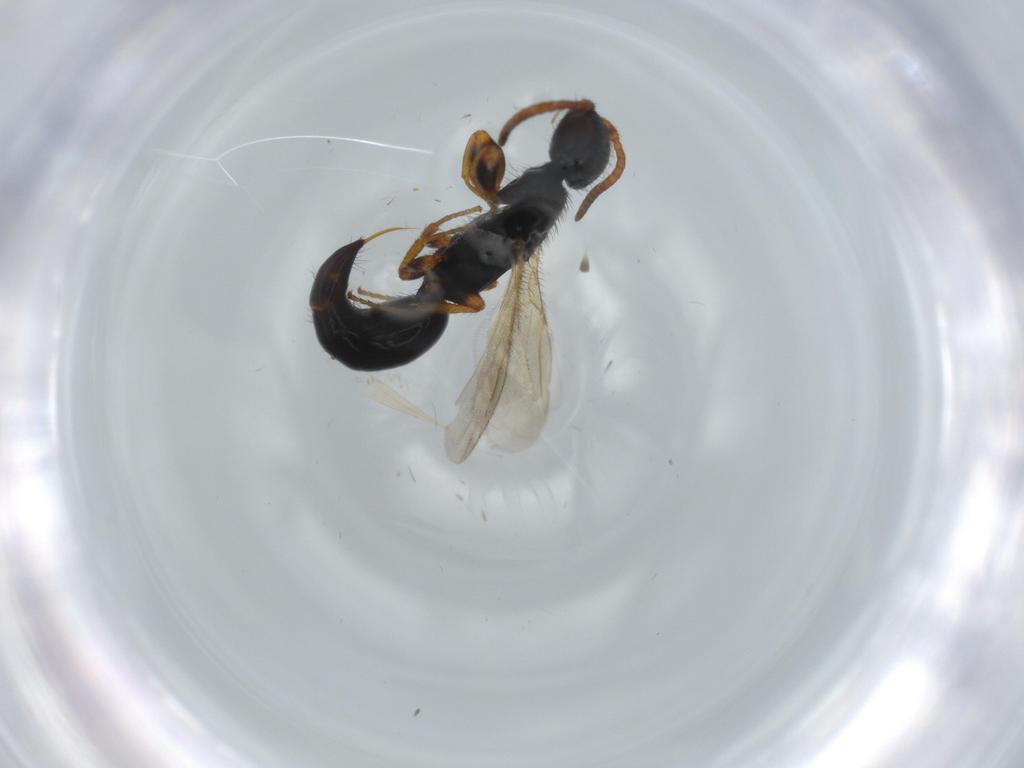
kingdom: Animalia
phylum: Arthropoda
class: Insecta
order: Hymenoptera
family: Bethylidae
